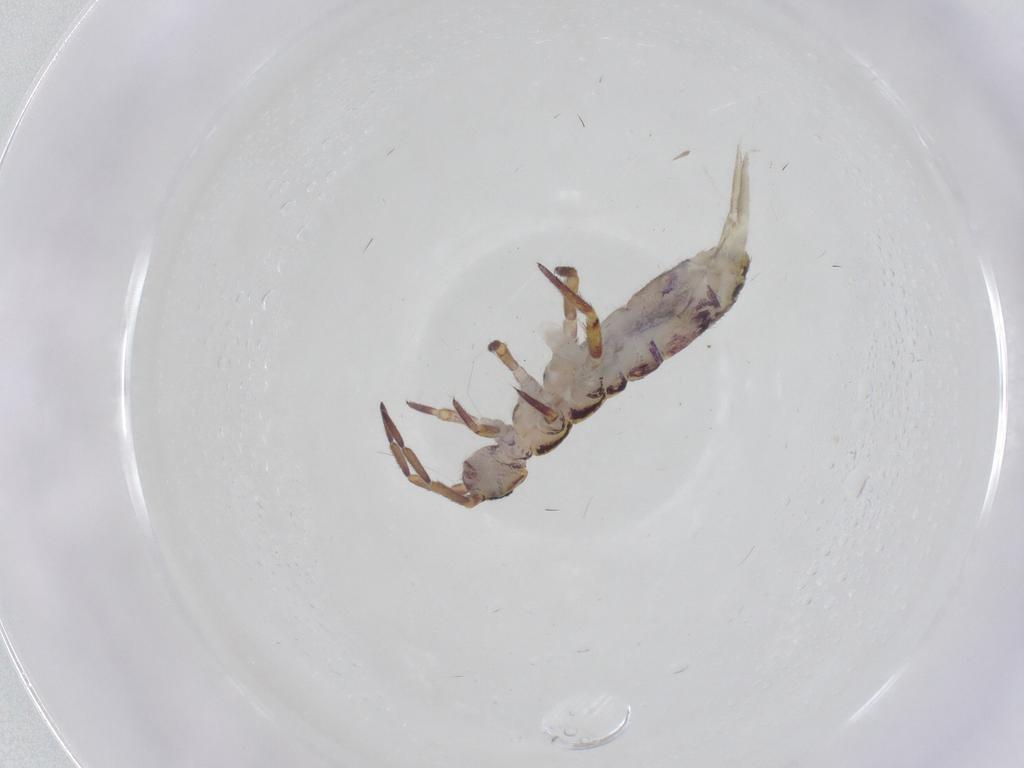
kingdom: Animalia
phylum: Arthropoda
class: Collembola
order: Entomobryomorpha
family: Isotomidae
